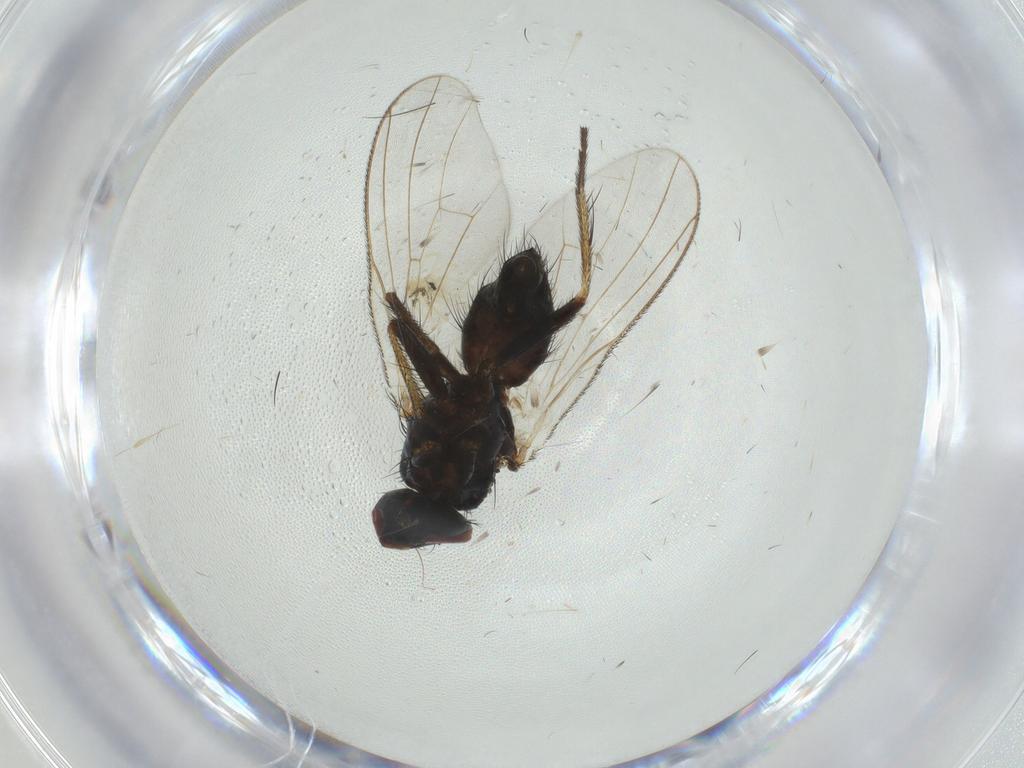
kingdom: Animalia
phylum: Arthropoda
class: Insecta
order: Diptera
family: Muscidae
